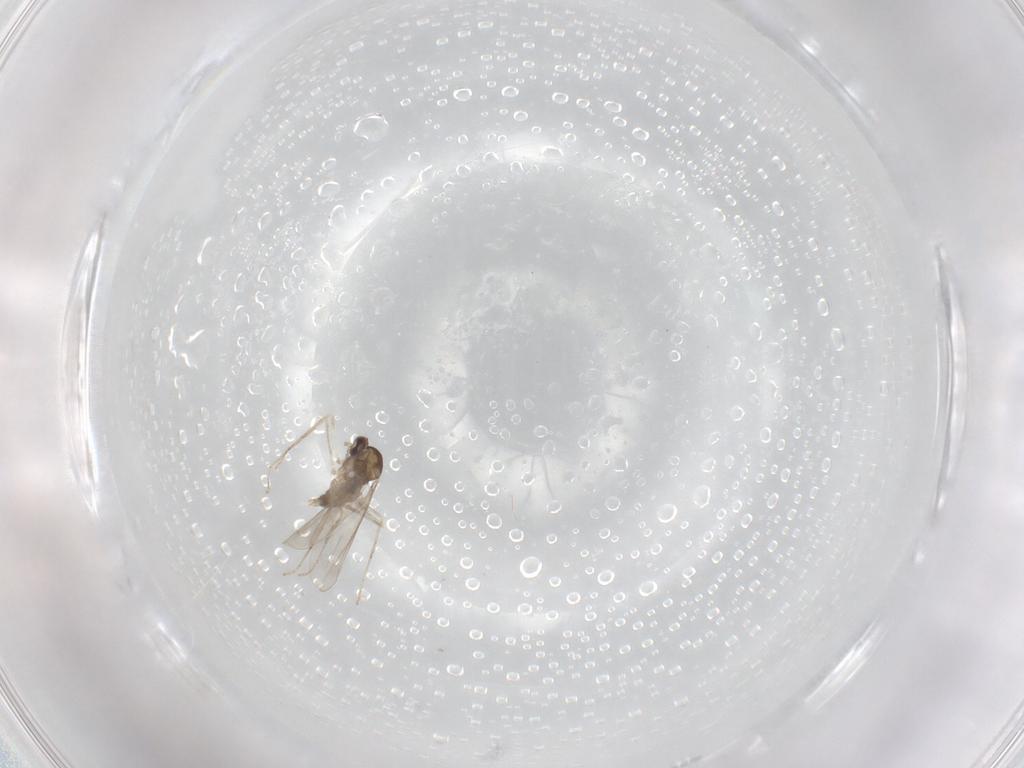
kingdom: Animalia
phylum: Arthropoda
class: Insecta
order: Diptera
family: Cecidomyiidae
